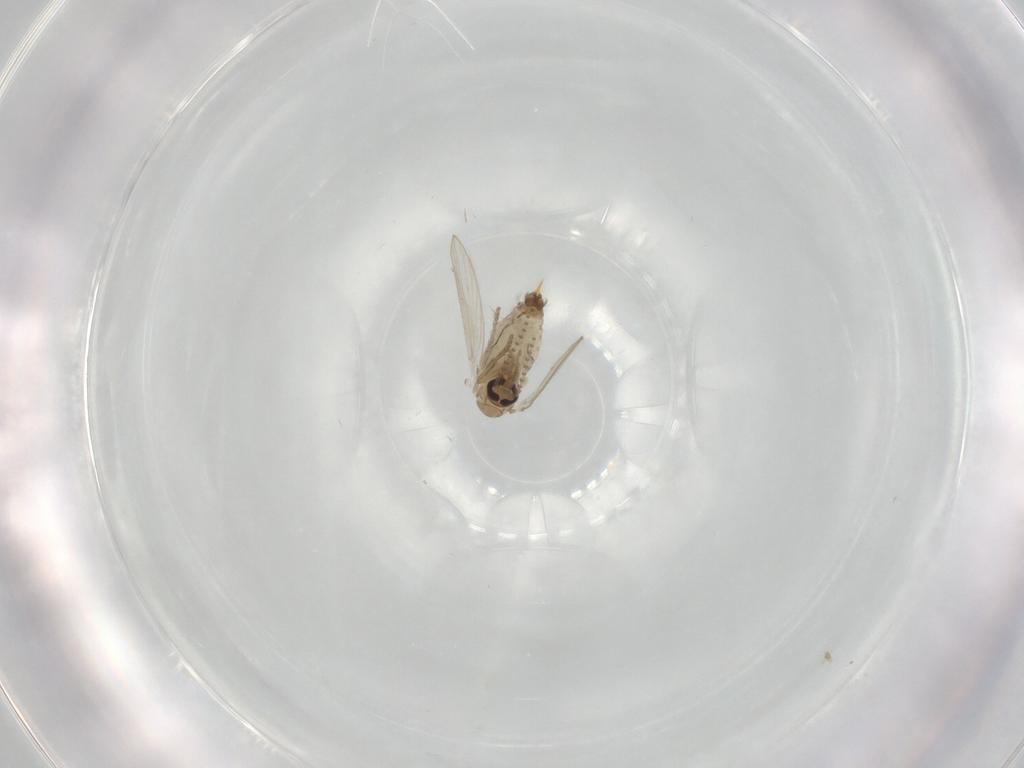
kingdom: Animalia
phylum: Arthropoda
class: Insecta
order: Diptera
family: Psychodidae
